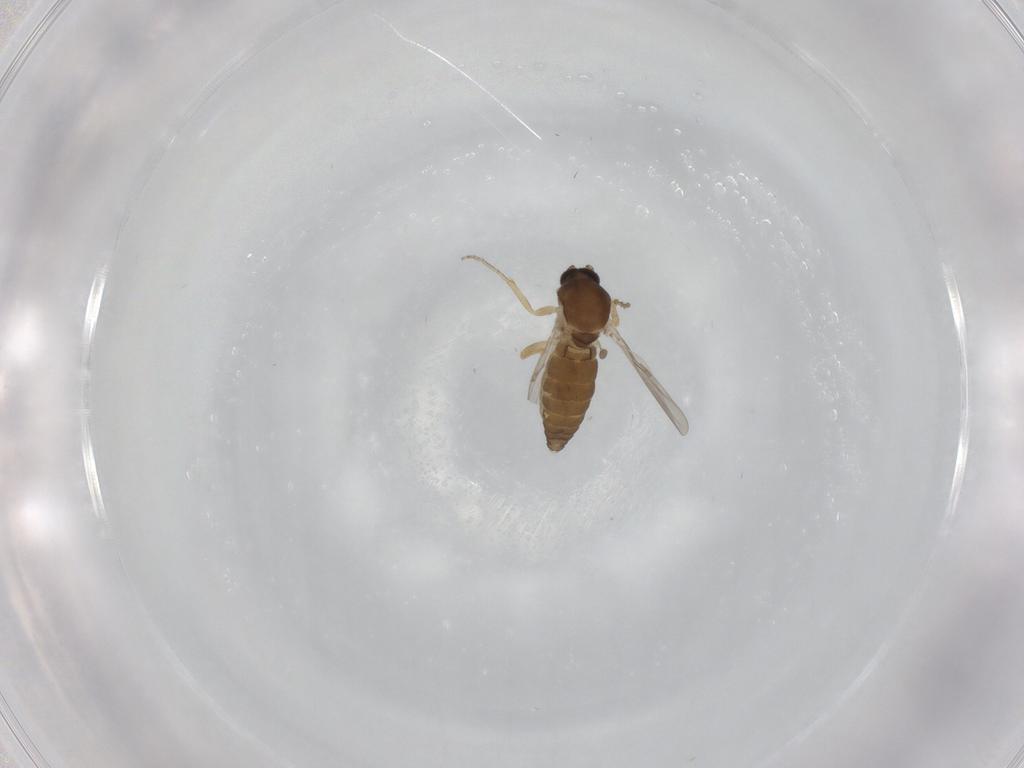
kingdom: Animalia
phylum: Arthropoda
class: Insecta
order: Diptera
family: Ceratopogonidae
